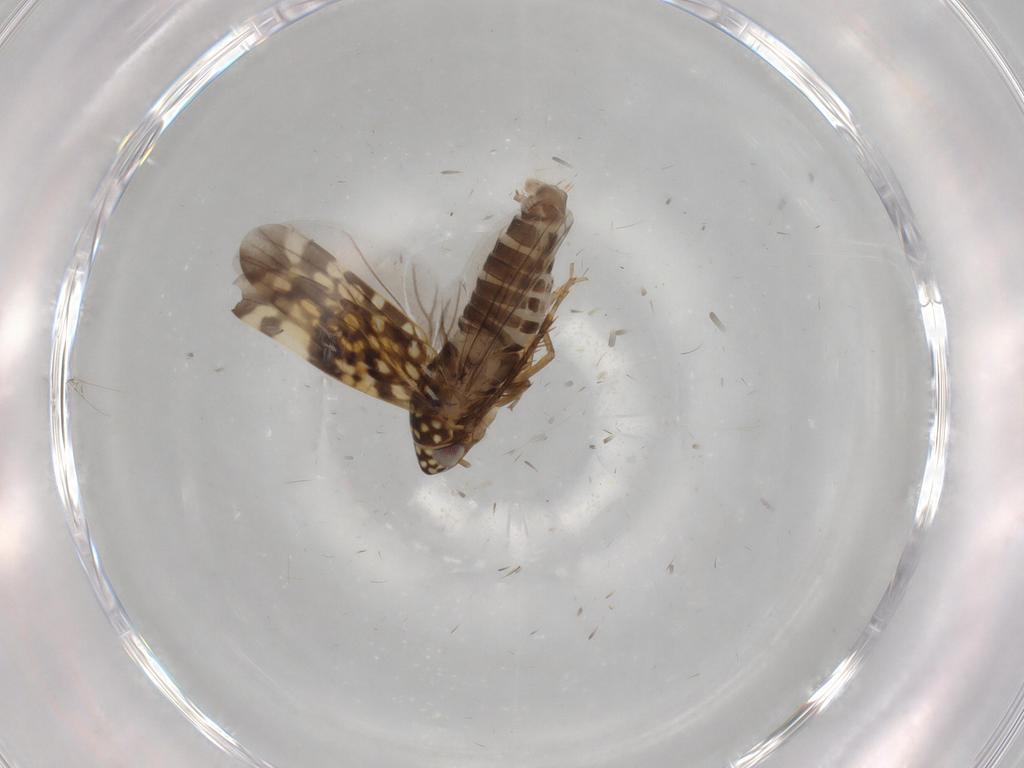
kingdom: Animalia
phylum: Arthropoda
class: Insecta
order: Hemiptera
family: Cicadellidae
